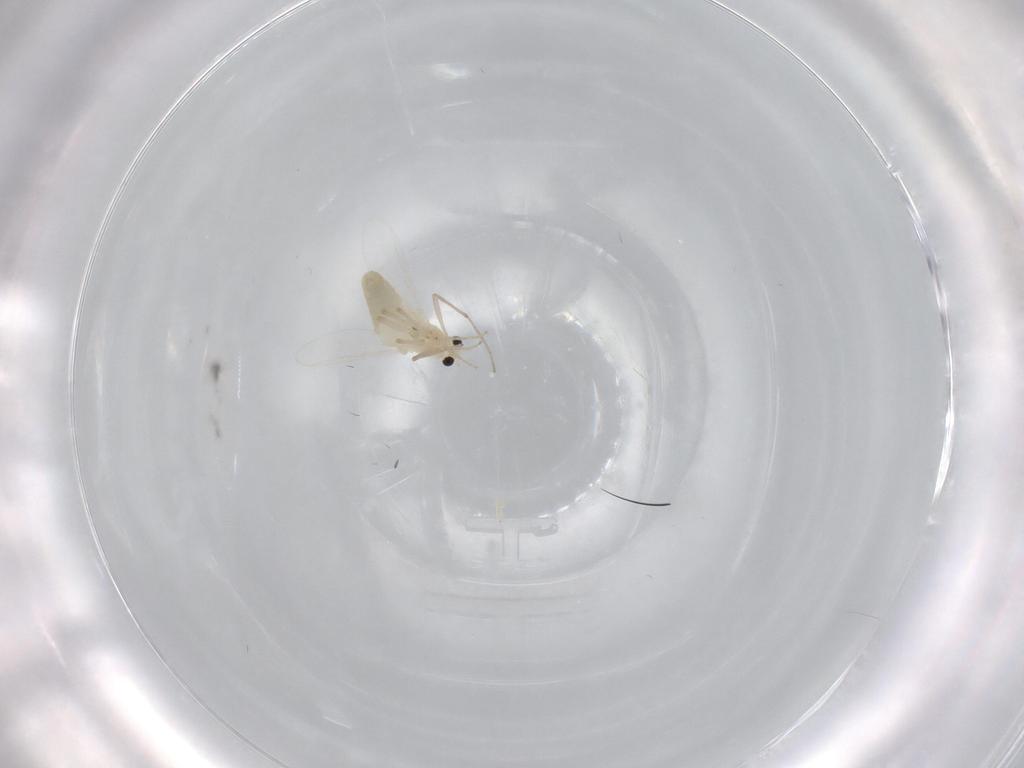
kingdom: Animalia
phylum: Arthropoda
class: Insecta
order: Diptera
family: Chironomidae
